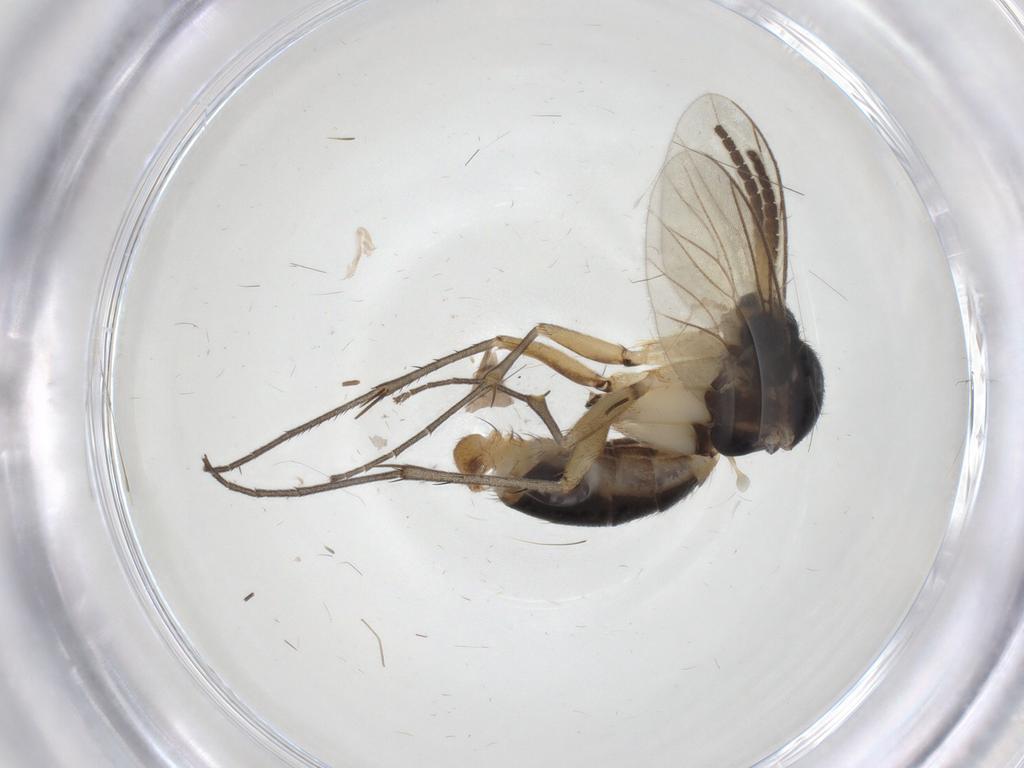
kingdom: Animalia
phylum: Arthropoda
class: Insecta
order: Diptera
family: Mycetophilidae
